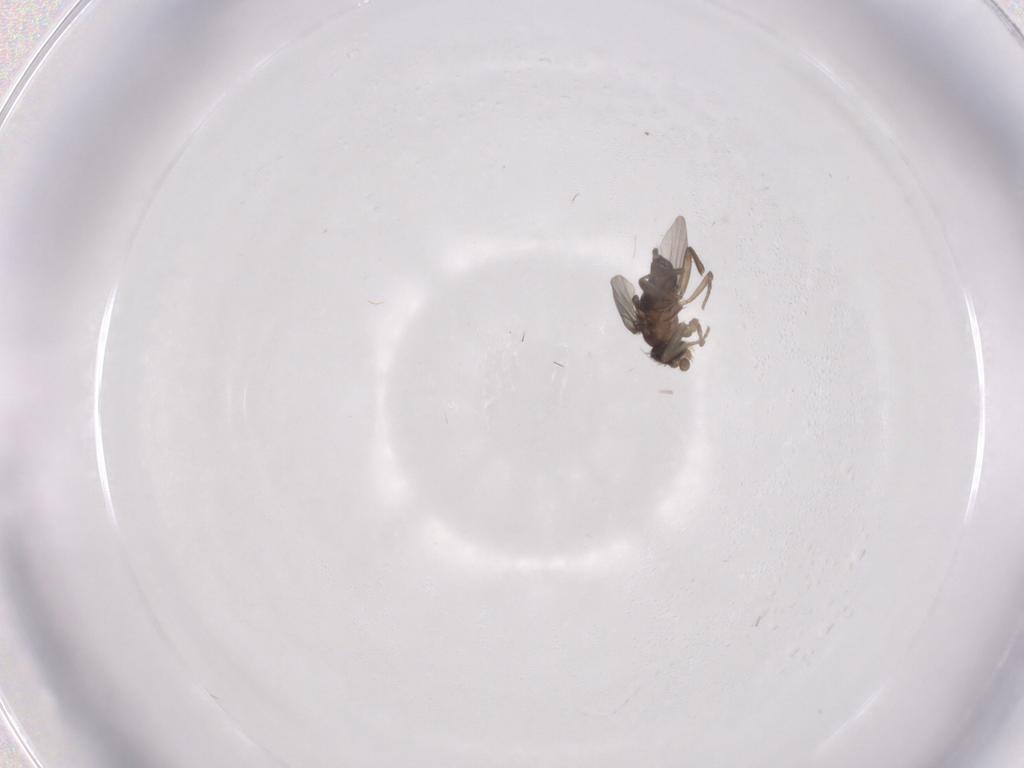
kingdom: Animalia
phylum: Arthropoda
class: Insecta
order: Diptera
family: Phoridae
